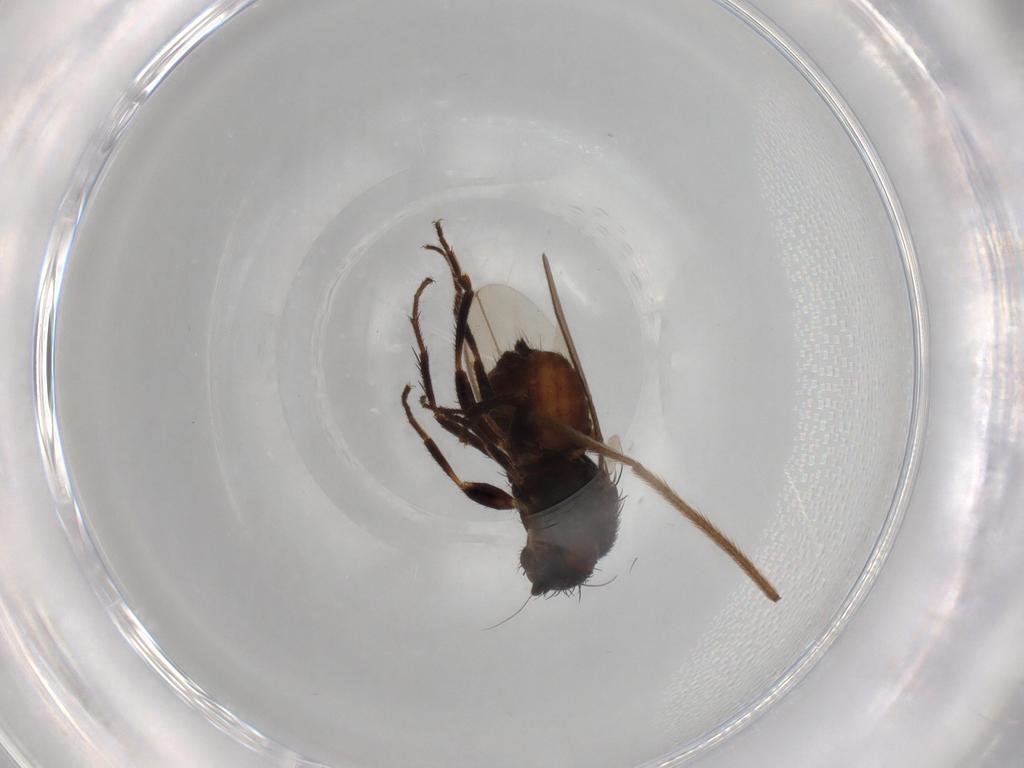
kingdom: Animalia
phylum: Arthropoda
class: Insecta
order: Diptera
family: Sphaeroceridae
